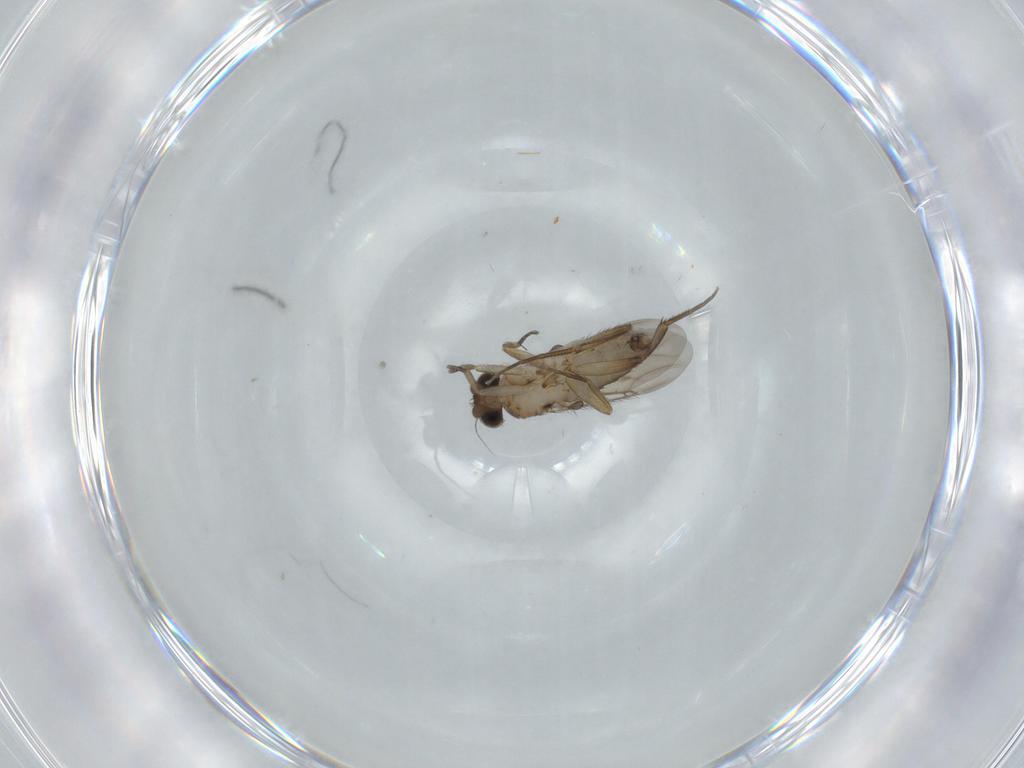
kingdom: Animalia
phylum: Arthropoda
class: Insecta
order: Diptera
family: Phoridae
